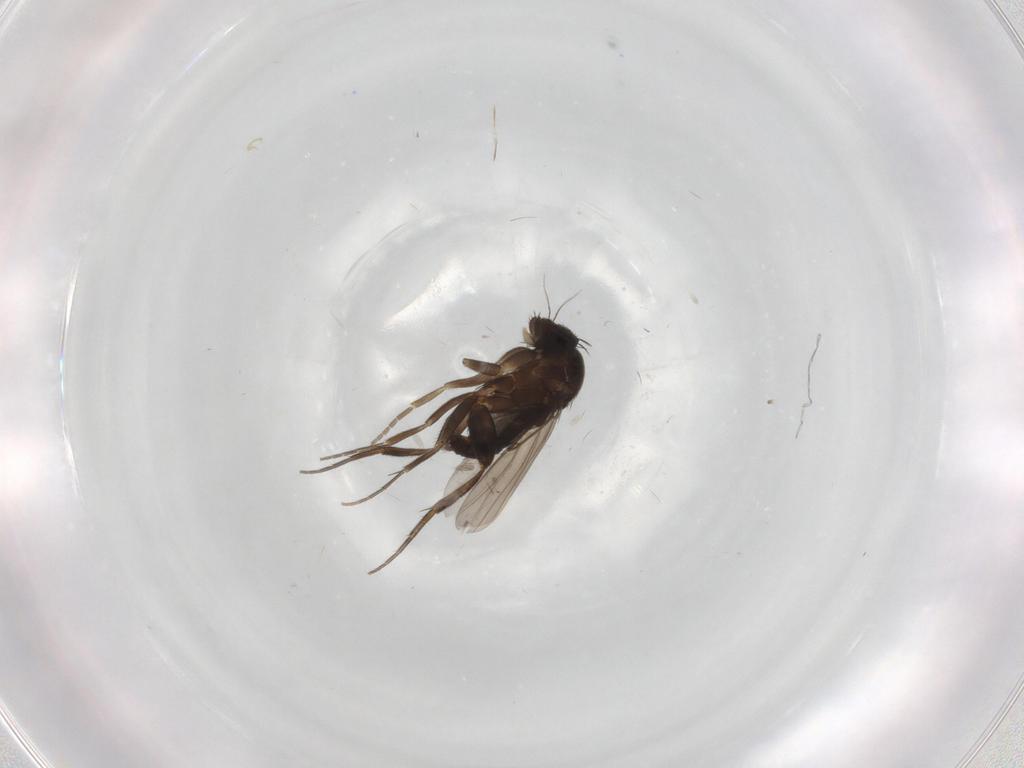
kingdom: Animalia
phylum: Arthropoda
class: Insecta
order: Diptera
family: Phoridae
